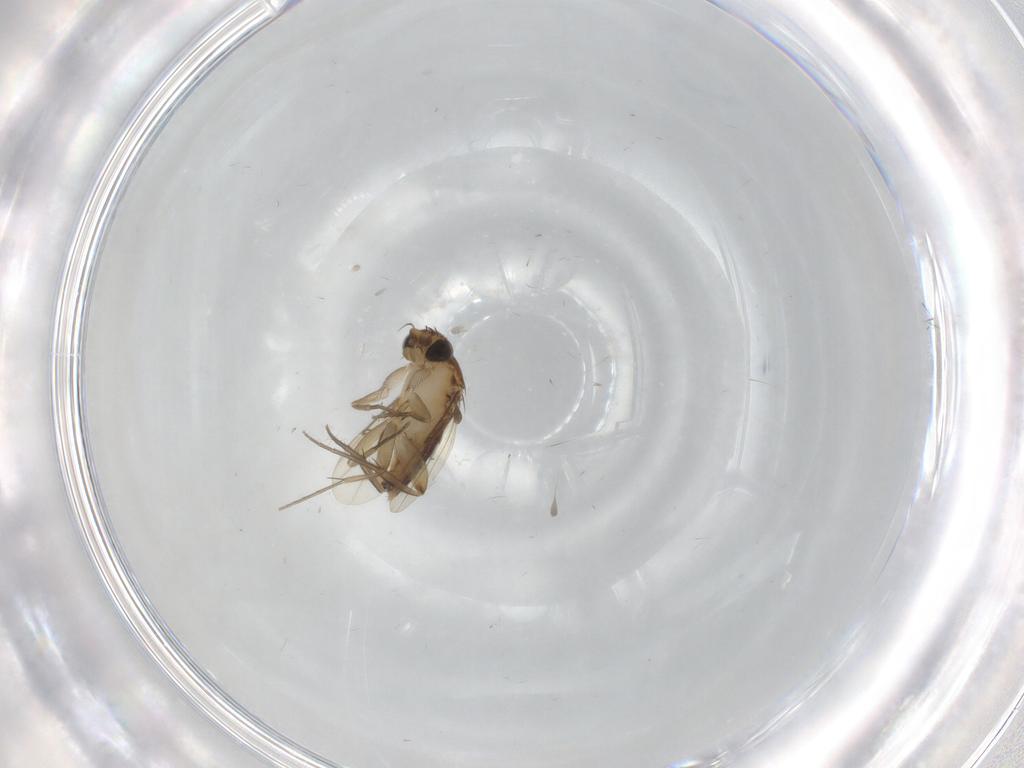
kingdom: Animalia
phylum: Arthropoda
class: Insecta
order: Diptera
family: Phoridae
